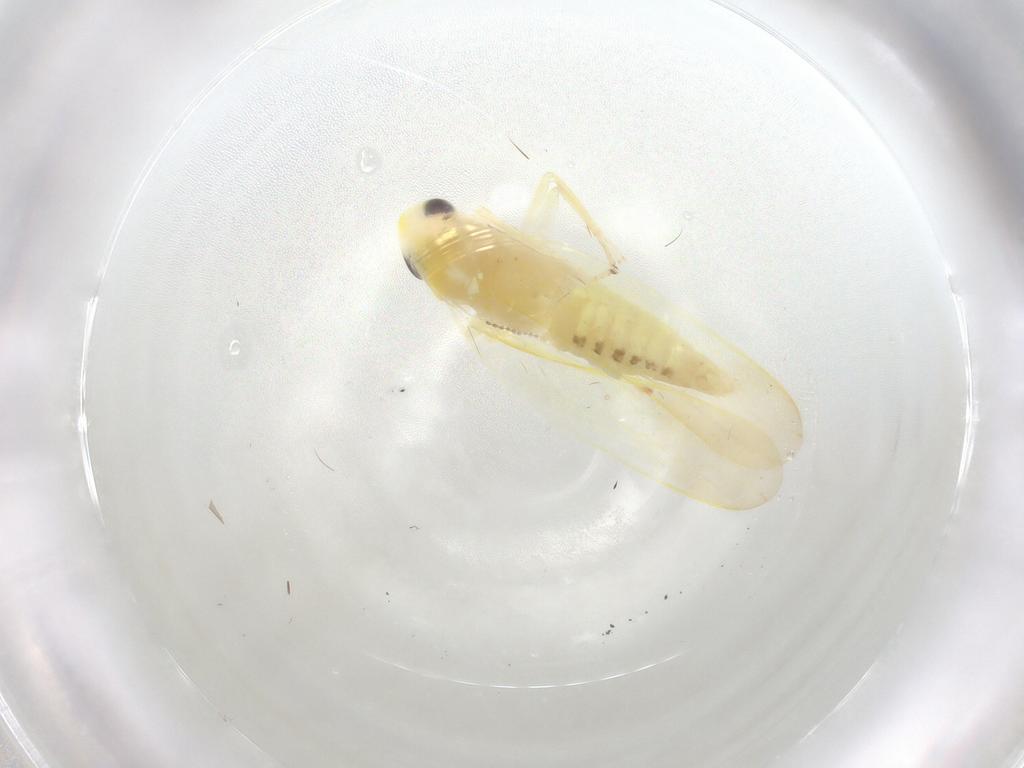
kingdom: Animalia
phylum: Arthropoda
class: Insecta
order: Hemiptera
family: Cicadellidae
